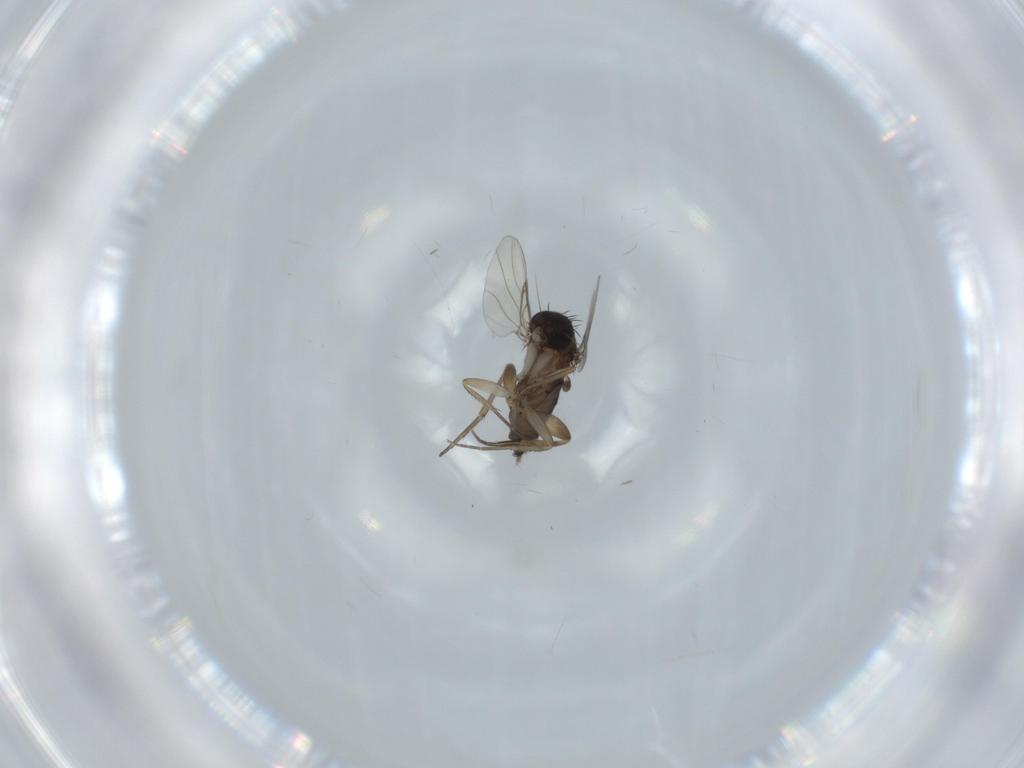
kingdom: Animalia
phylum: Arthropoda
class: Insecta
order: Diptera
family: Phoridae
